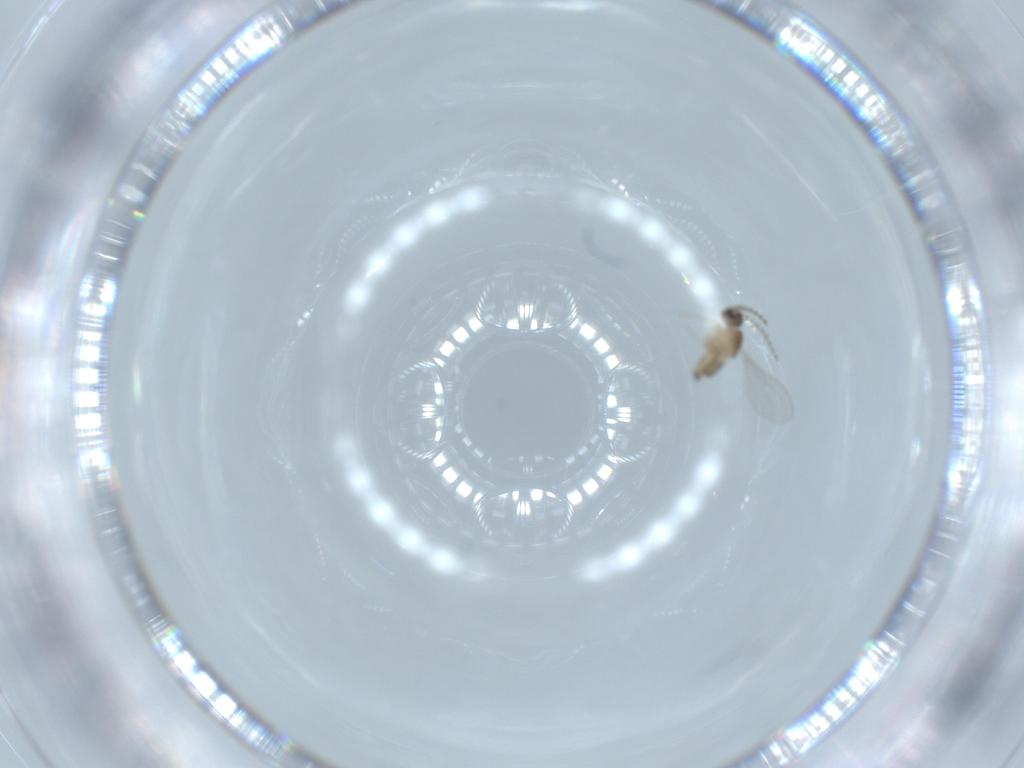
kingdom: Animalia
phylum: Arthropoda
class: Insecta
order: Diptera
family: Cecidomyiidae
